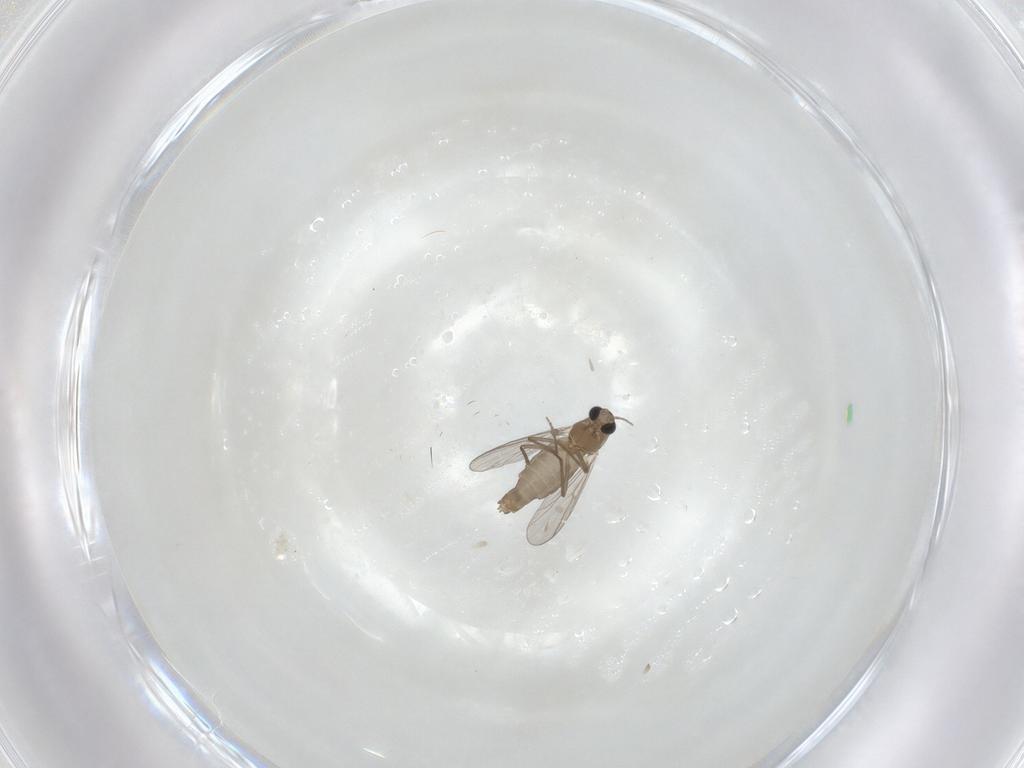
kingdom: Animalia
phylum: Arthropoda
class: Insecta
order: Diptera
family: Chironomidae
